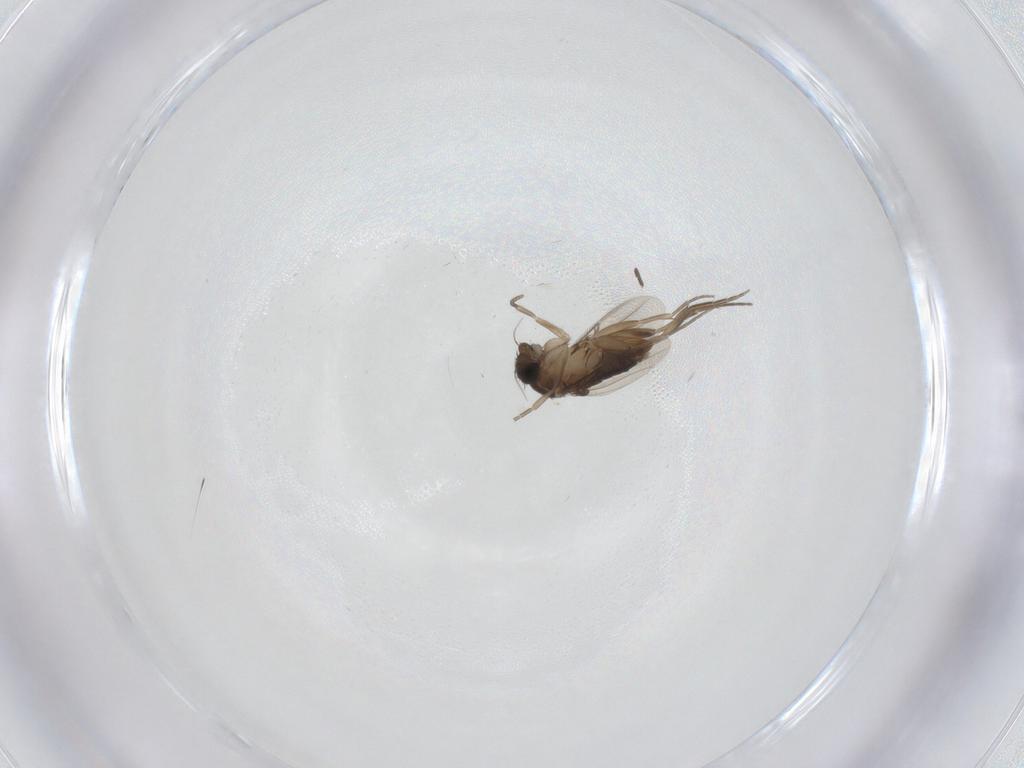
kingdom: Animalia
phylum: Arthropoda
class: Insecta
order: Diptera
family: Phoridae
